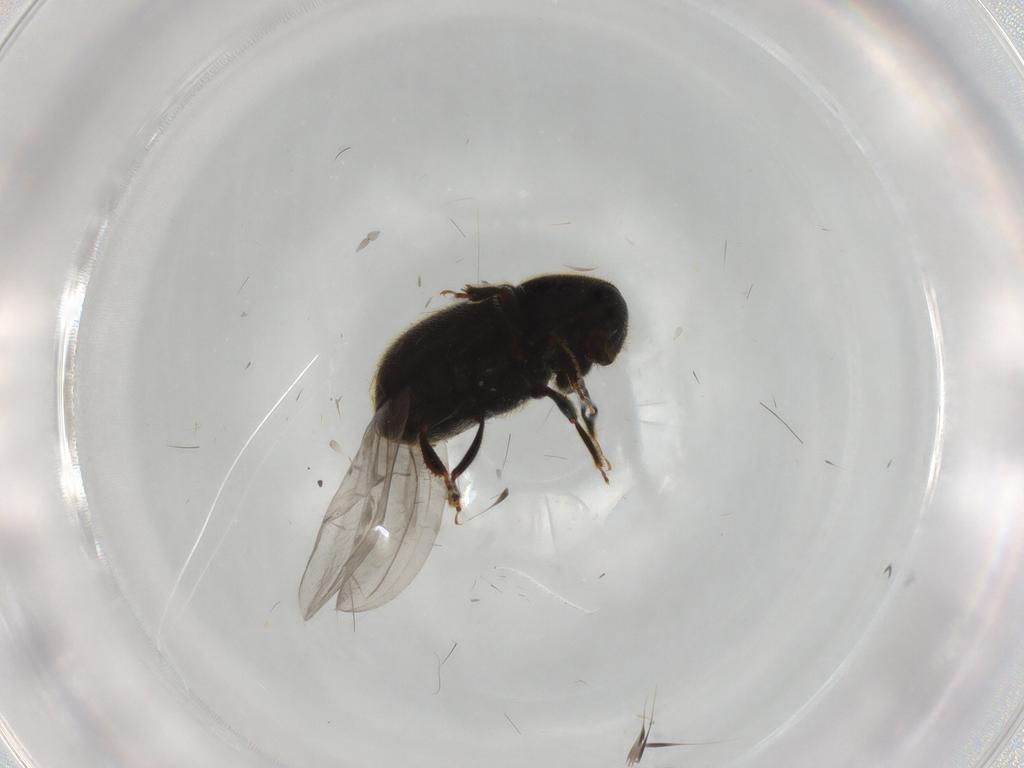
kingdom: Animalia
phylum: Arthropoda
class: Insecta
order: Coleoptera
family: Curculionidae
